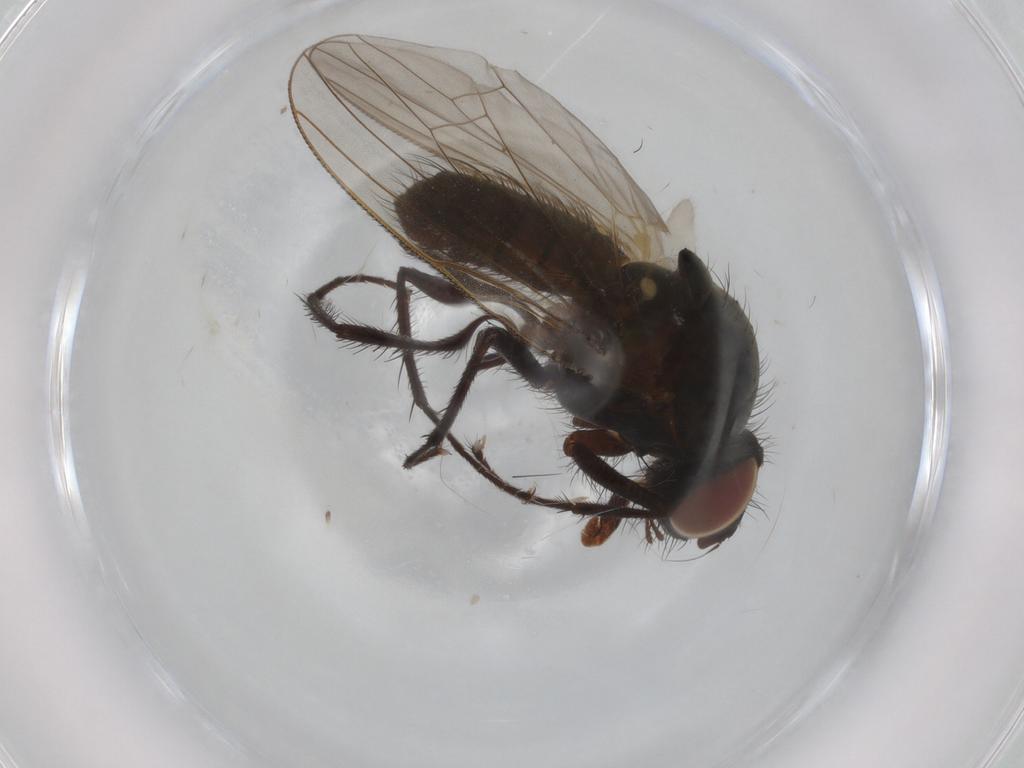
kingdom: Animalia
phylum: Arthropoda
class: Insecta
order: Diptera
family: Anthomyiidae
